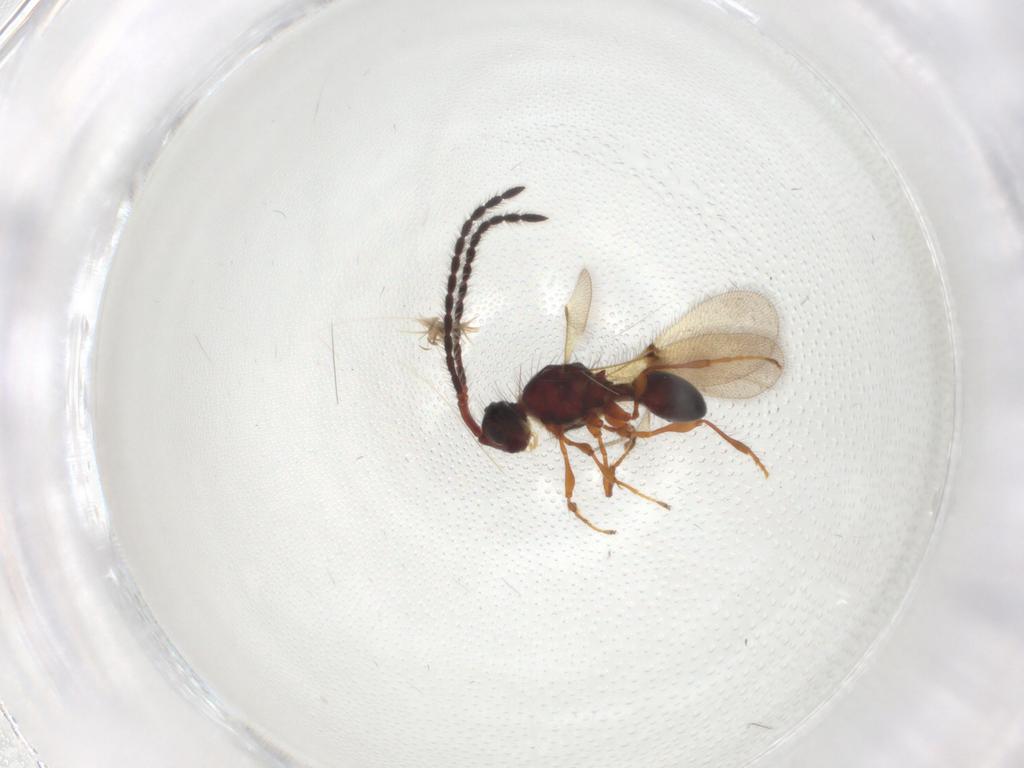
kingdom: Animalia
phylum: Arthropoda
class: Insecta
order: Hymenoptera
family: Diapriidae
